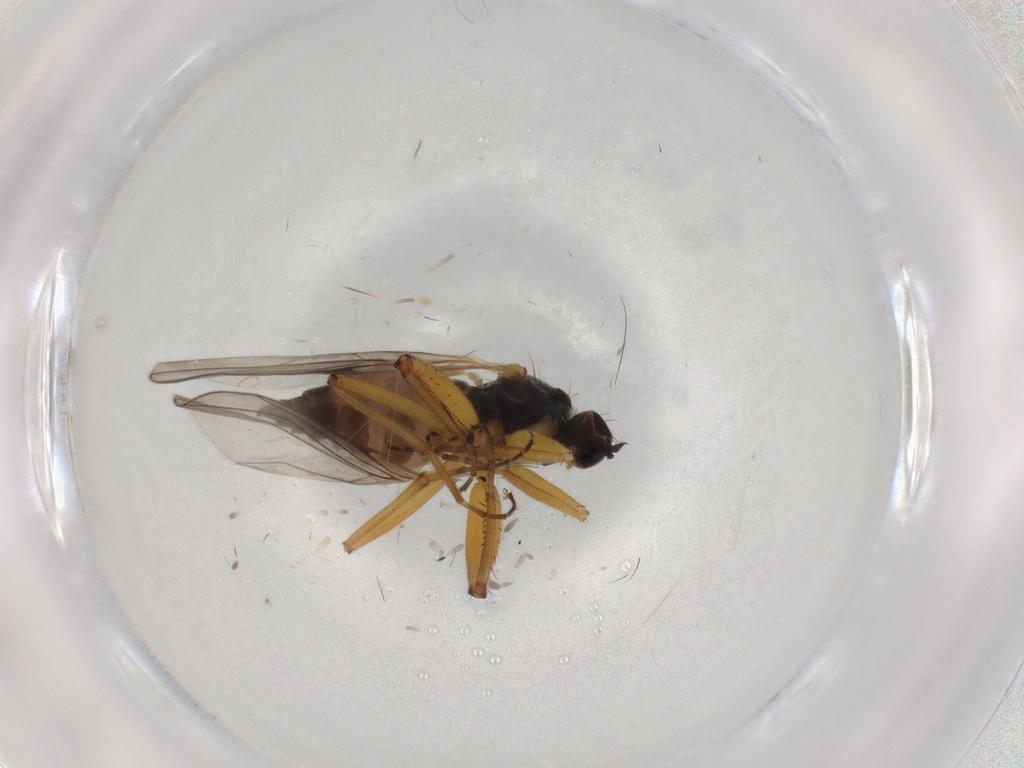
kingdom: Animalia
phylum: Arthropoda
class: Insecta
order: Diptera
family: Hybotidae
